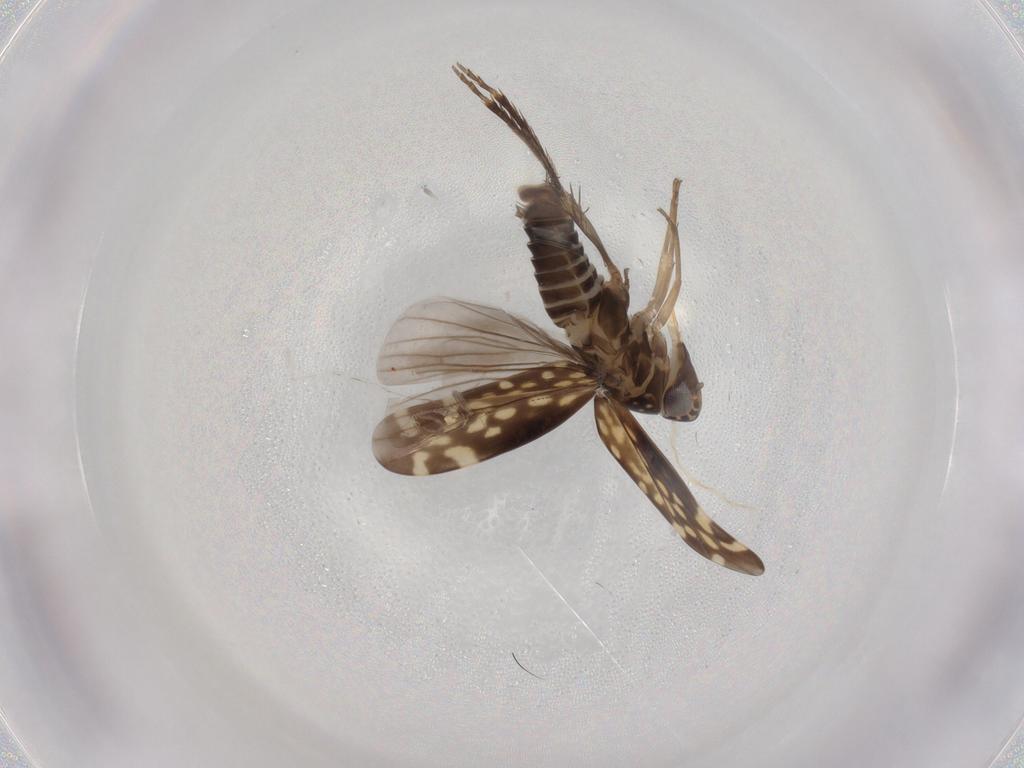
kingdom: Animalia
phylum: Arthropoda
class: Insecta
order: Hemiptera
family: Cicadellidae
